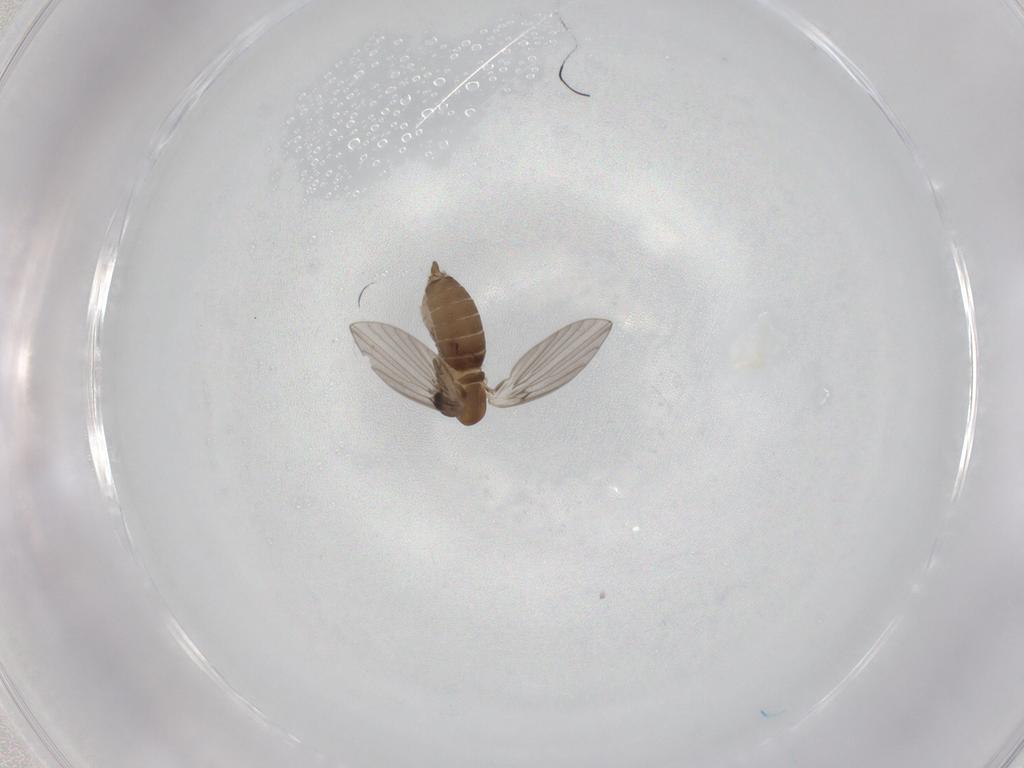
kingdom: Animalia
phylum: Arthropoda
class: Insecta
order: Diptera
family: Psychodidae
